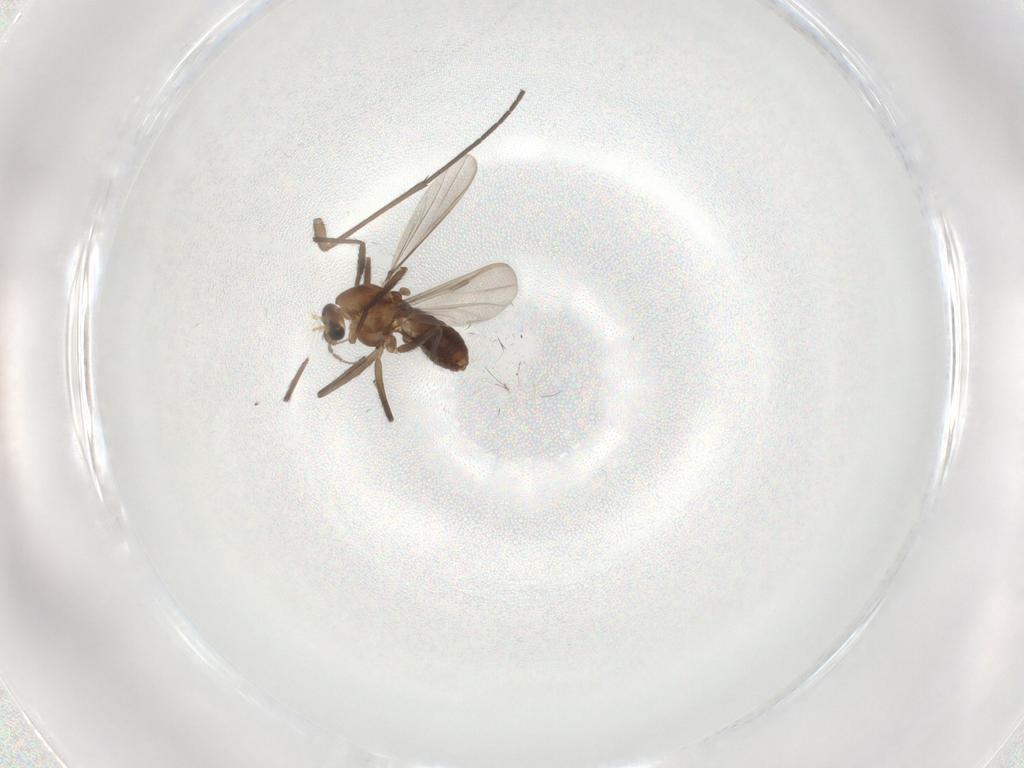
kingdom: Animalia
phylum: Arthropoda
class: Insecta
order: Diptera
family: Chironomidae
